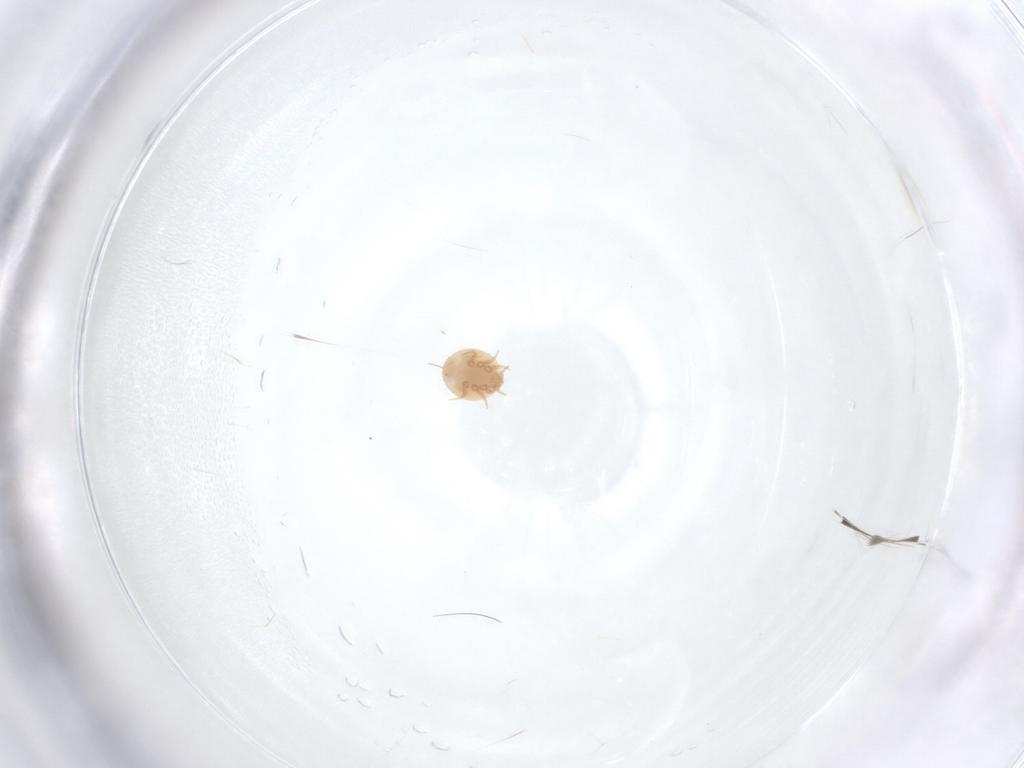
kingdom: Animalia
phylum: Arthropoda
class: Arachnida
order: Mesostigmata
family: Trematuridae
